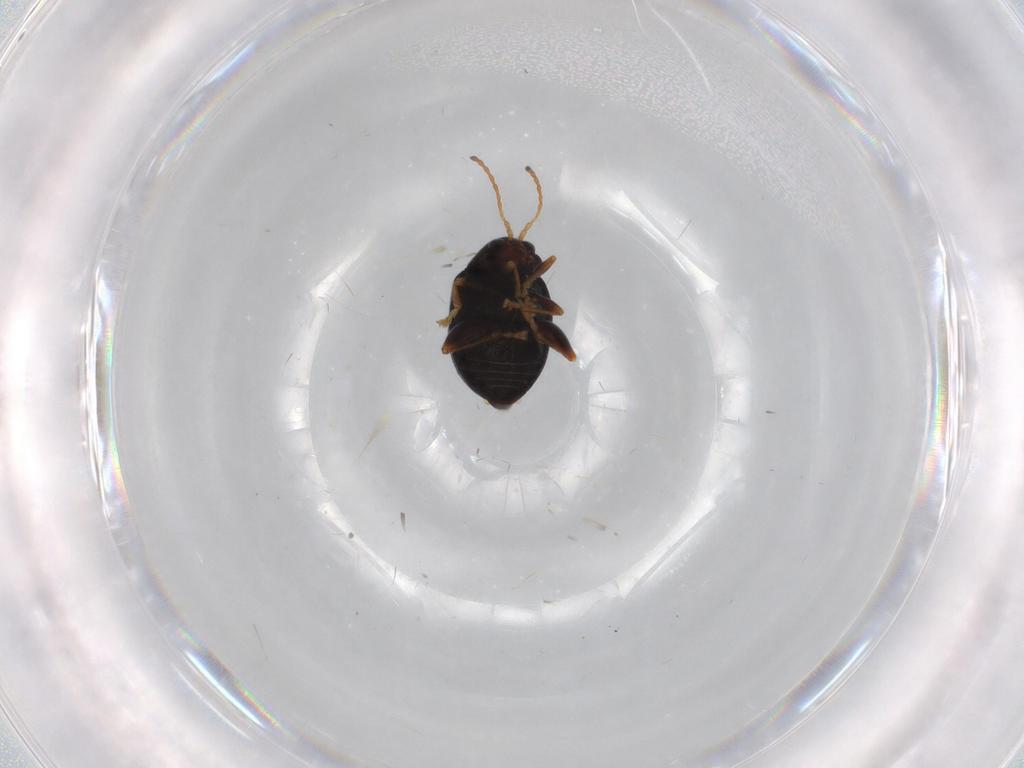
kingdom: Animalia
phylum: Arthropoda
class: Insecta
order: Coleoptera
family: Chrysomelidae
